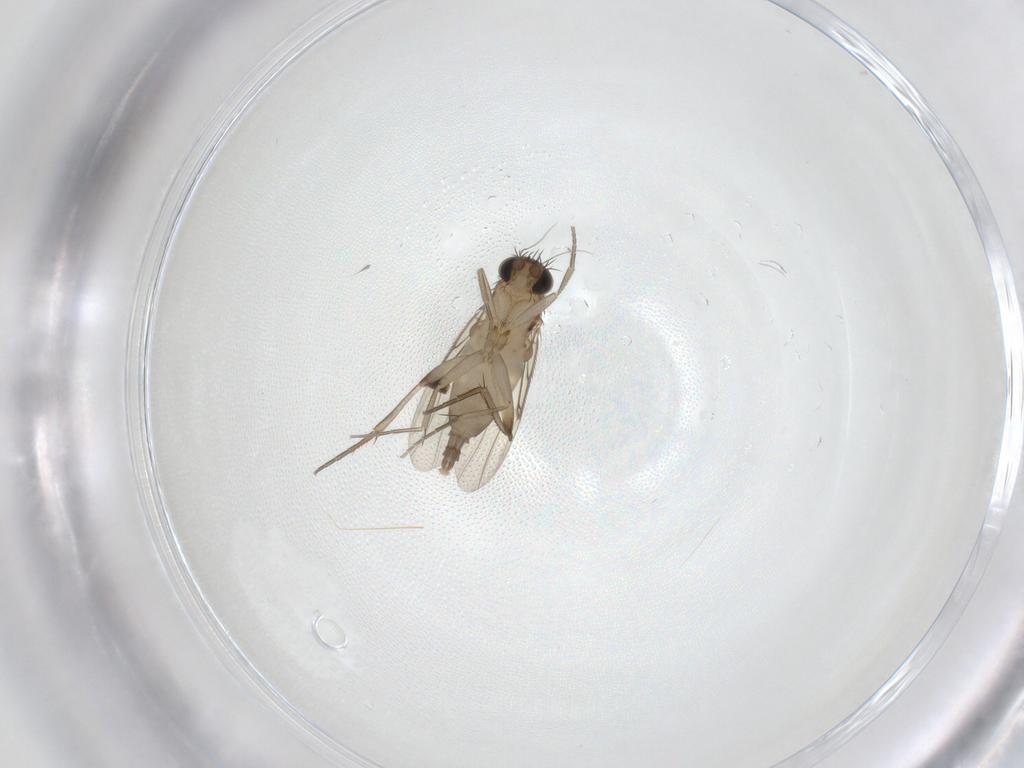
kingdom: Animalia
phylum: Arthropoda
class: Insecta
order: Diptera
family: Phoridae
